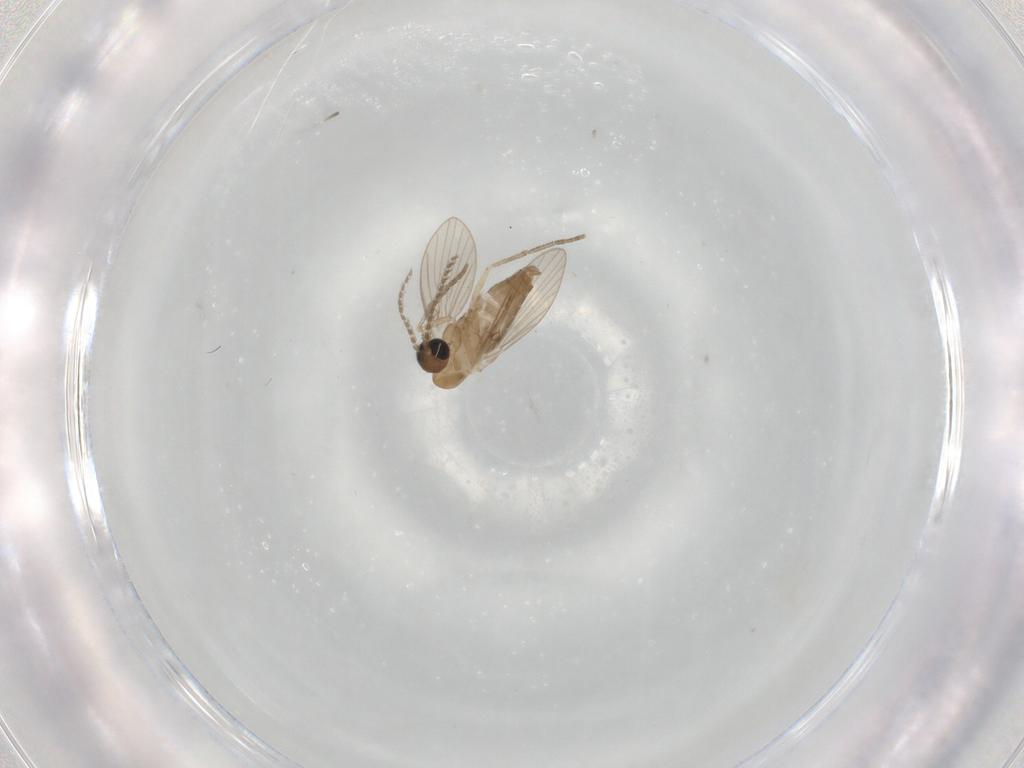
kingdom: Animalia
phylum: Arthropoda
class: Insecta
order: Diptera
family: Psychodidae
